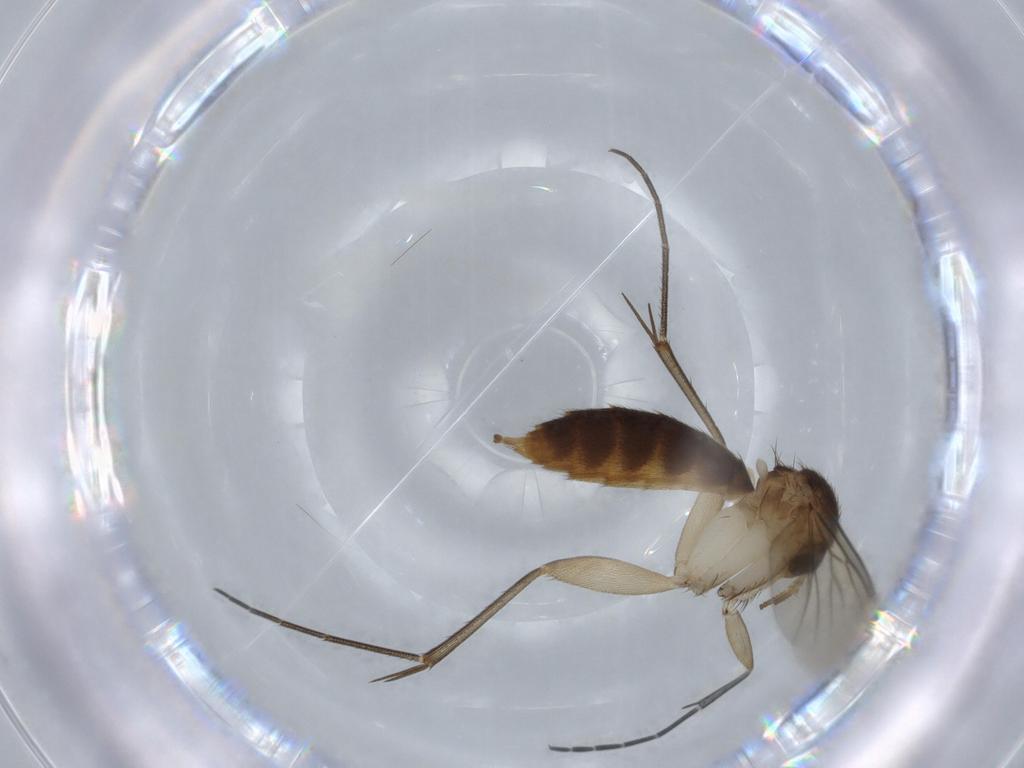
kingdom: Animalia
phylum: Arthropoda
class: Insecta
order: Diptera
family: Mycetophilidae
